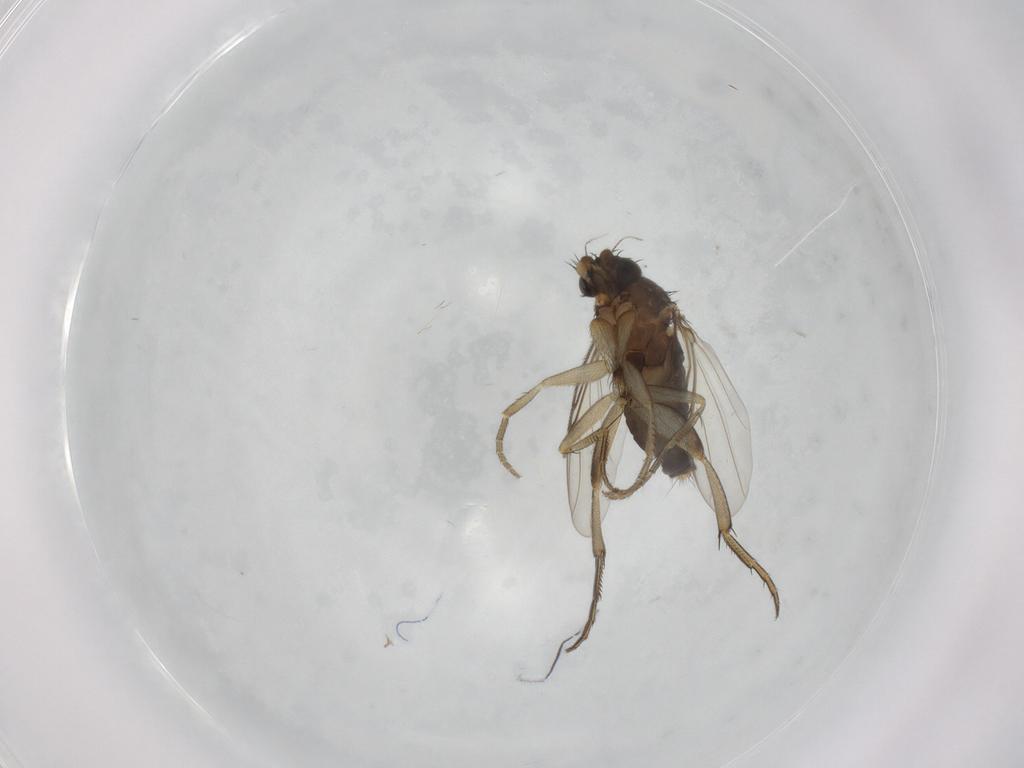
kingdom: Animalia
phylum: Arthropoda
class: Insecta
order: Diptera
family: Phoridae
